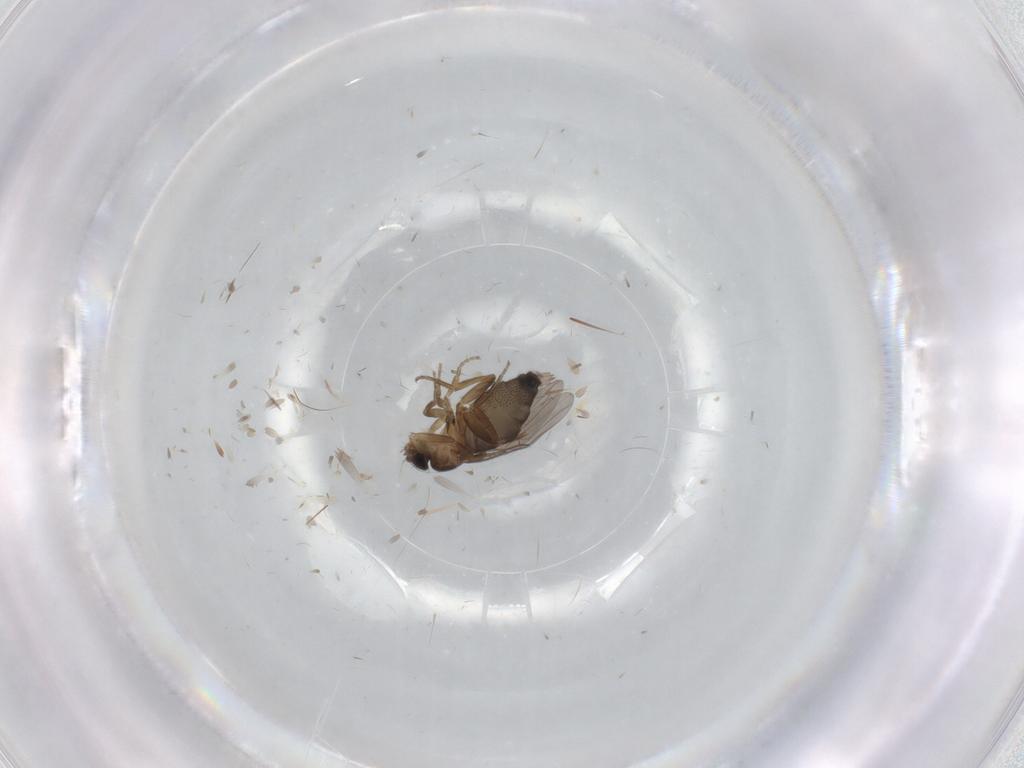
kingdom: Animalia
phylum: Arthropoda
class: Insecta
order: Diptera
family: Phoridae
